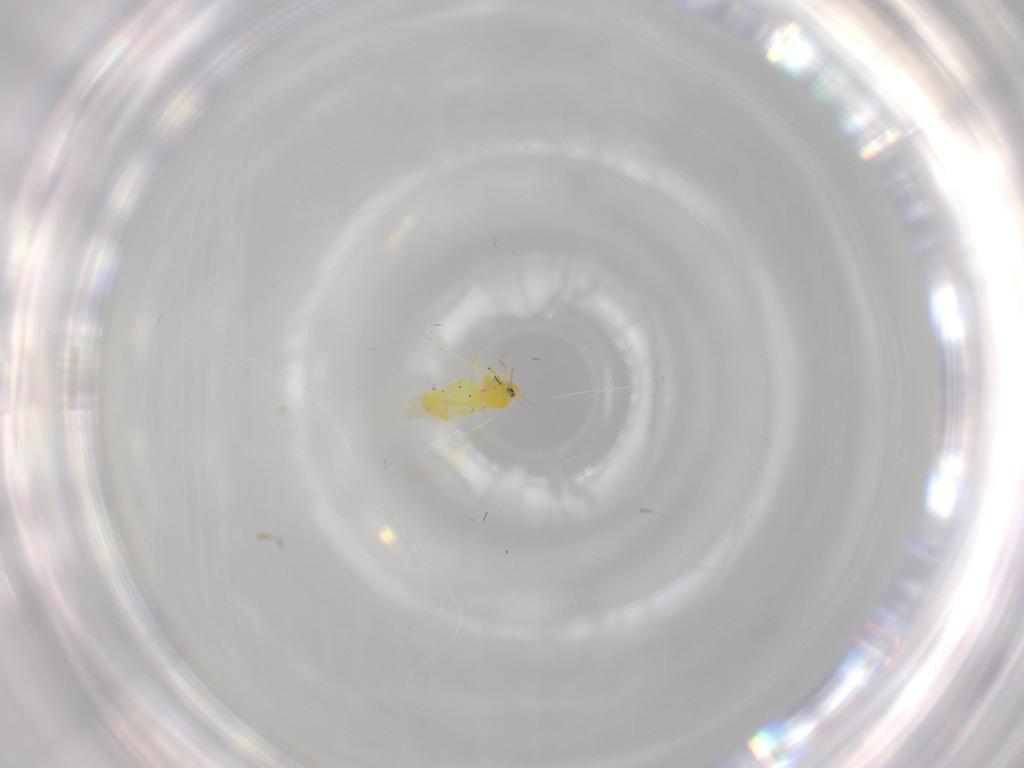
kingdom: Animalia
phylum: Arthropoda
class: Insecta
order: Hemiptera
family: Aleyrodidae
